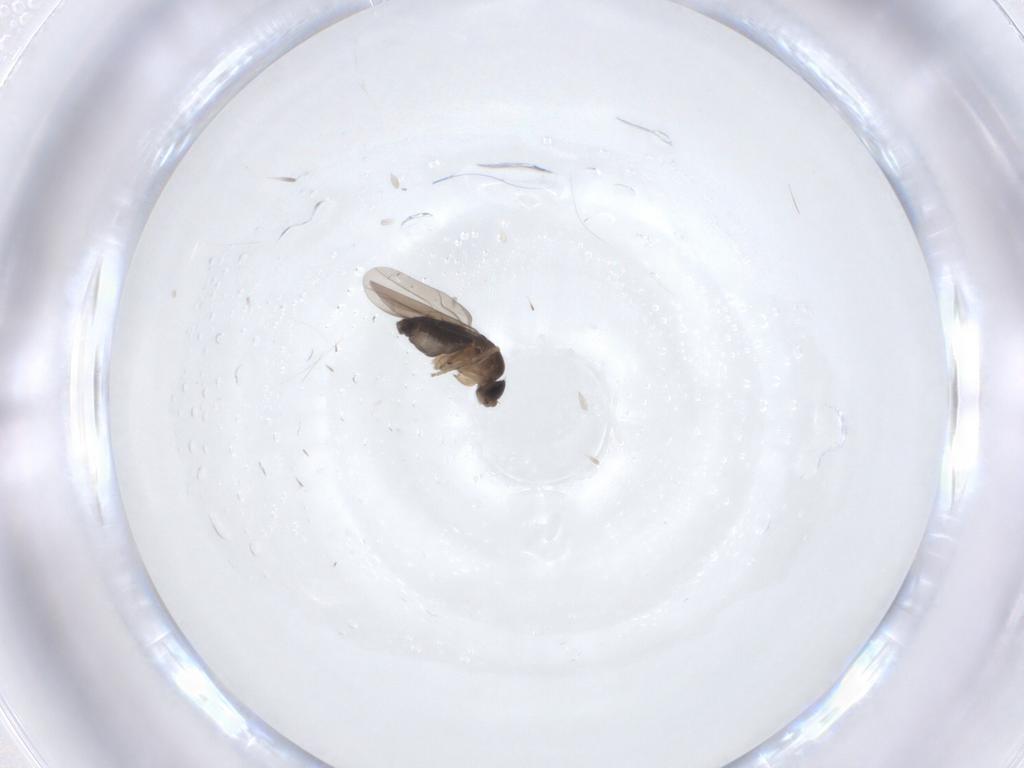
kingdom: Animalia
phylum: Arthropoda
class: Insecta
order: Diptera
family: Phoridae
